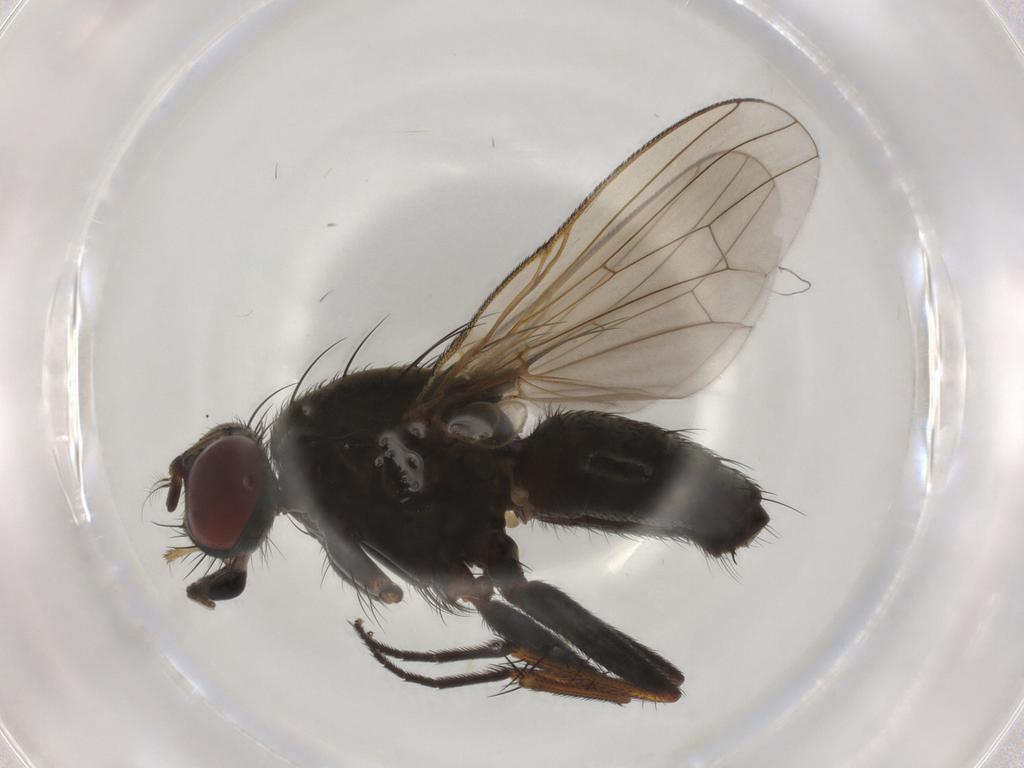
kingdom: Animalia
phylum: Arthropoda
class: Insecta
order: Diptera
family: Muscidae
